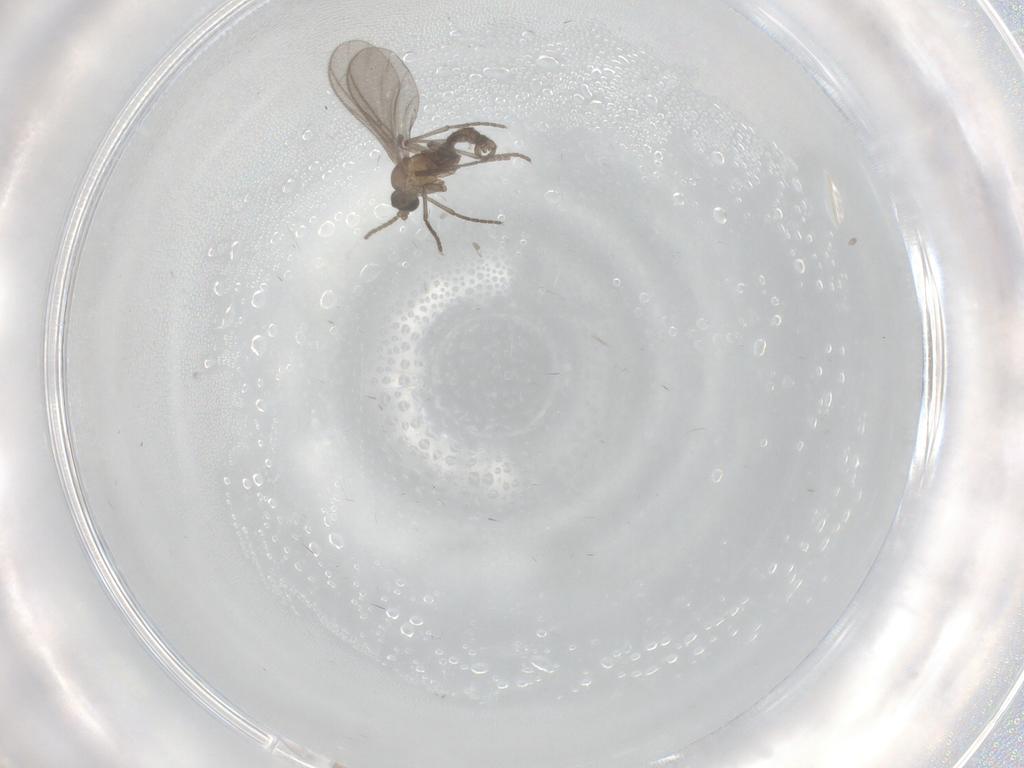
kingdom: Animalia
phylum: Arthropoda
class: Insecta
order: Diptera
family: Sciaridae
